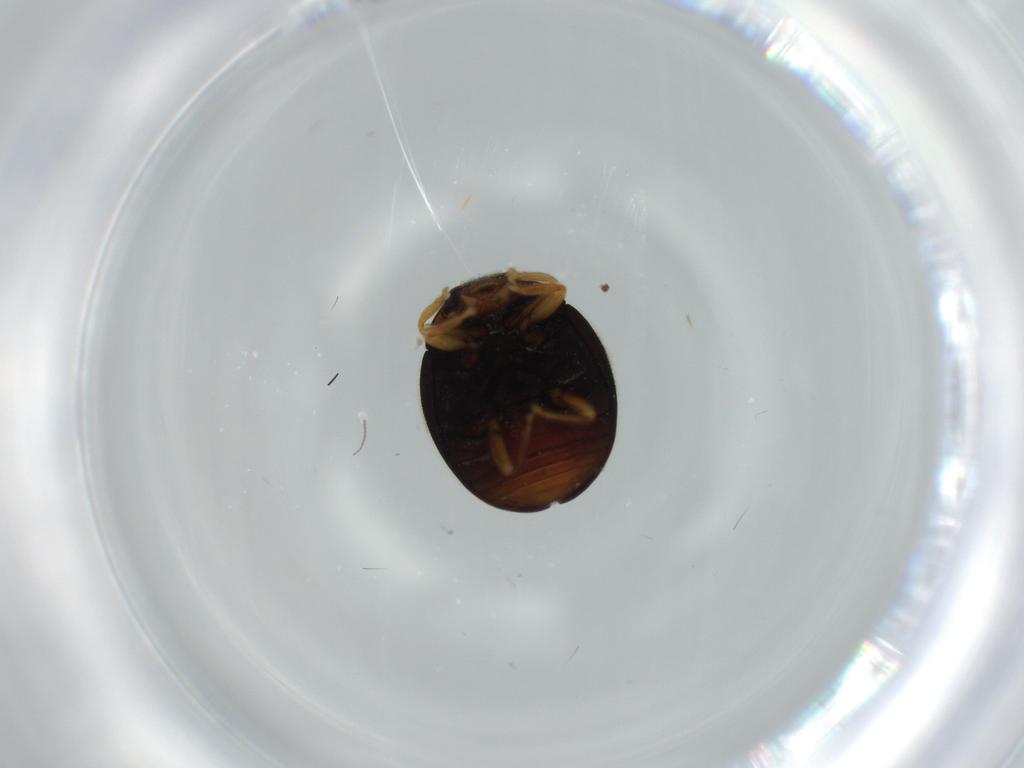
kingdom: Animalia
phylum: Arthropoda
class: Insecta
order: Coleoptera
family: Coccinellidae
